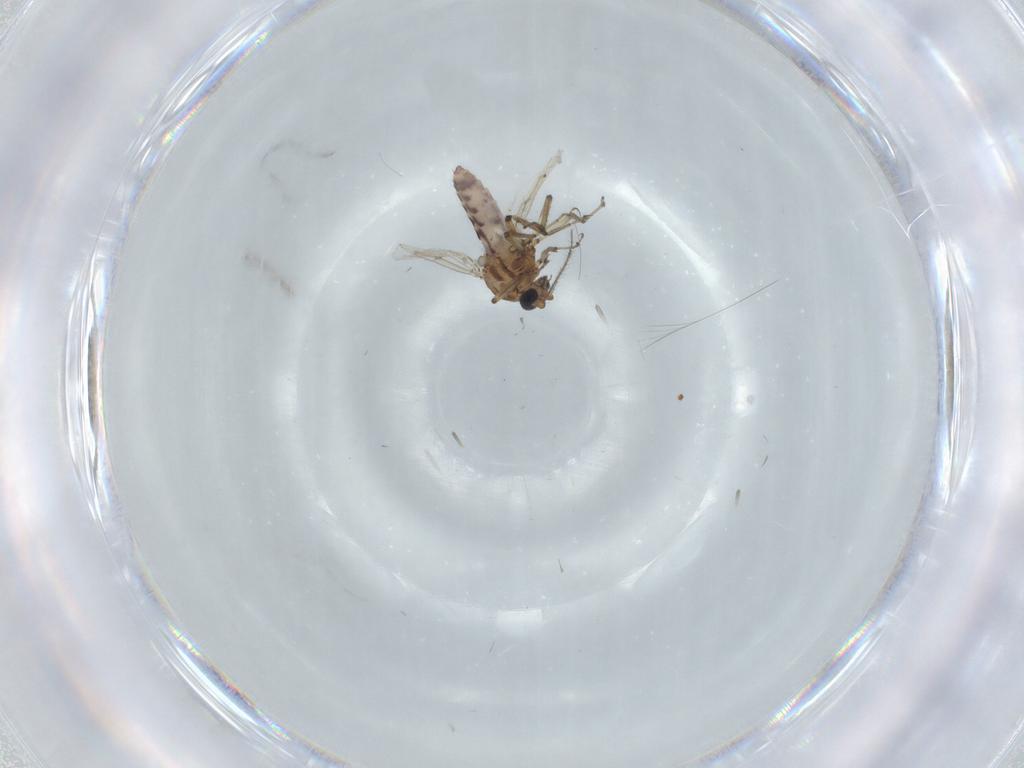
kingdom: Animalia
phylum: Arthropoda
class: Insecta
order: Diptera
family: Ceratopogonidae
